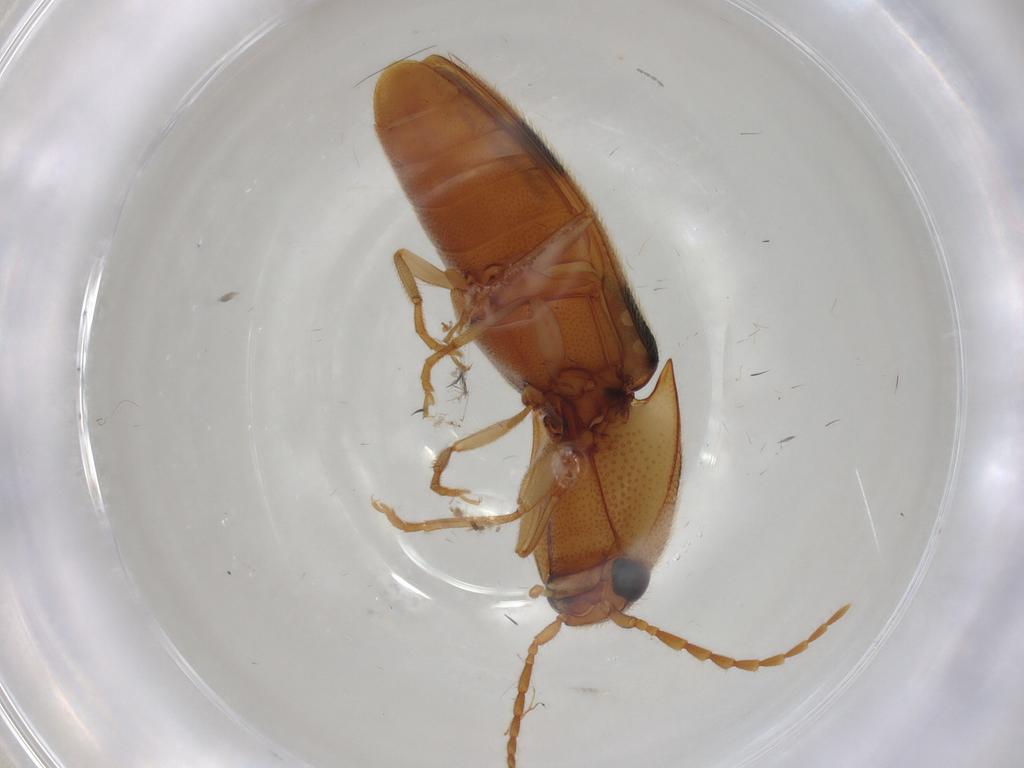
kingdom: Animalia
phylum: Arthropoda
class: Insecta
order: Coleoptera
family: Elateridae
